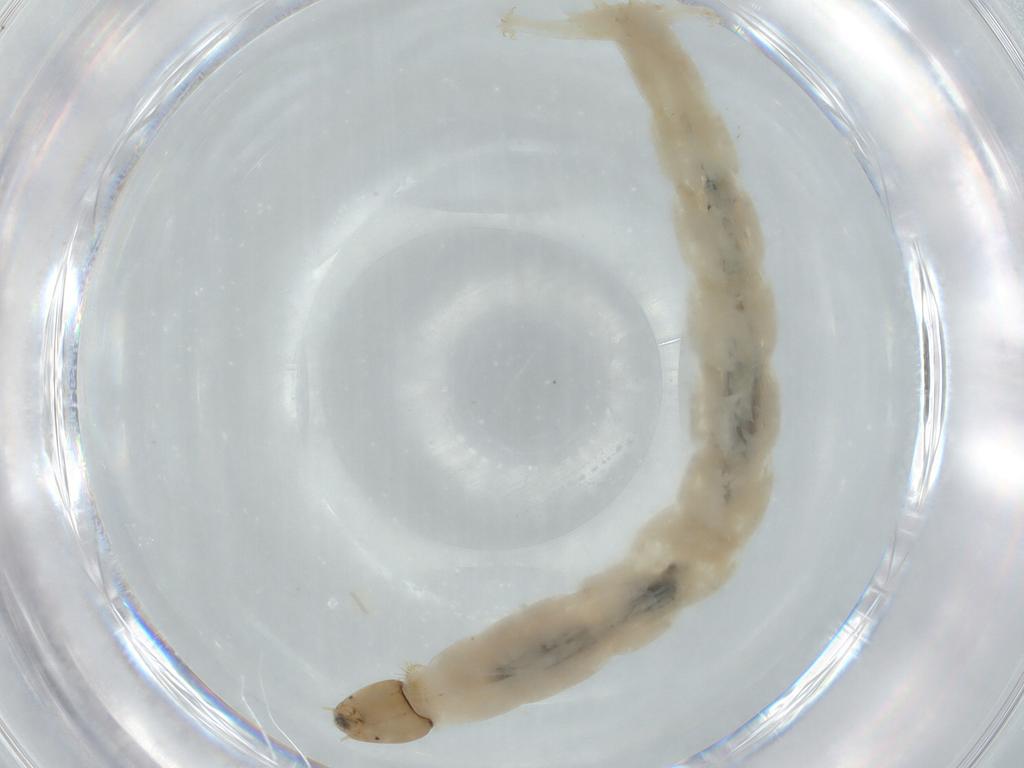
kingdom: Animalia
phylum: Arthropoda
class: Insecta
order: Diptera
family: Chironomidae
